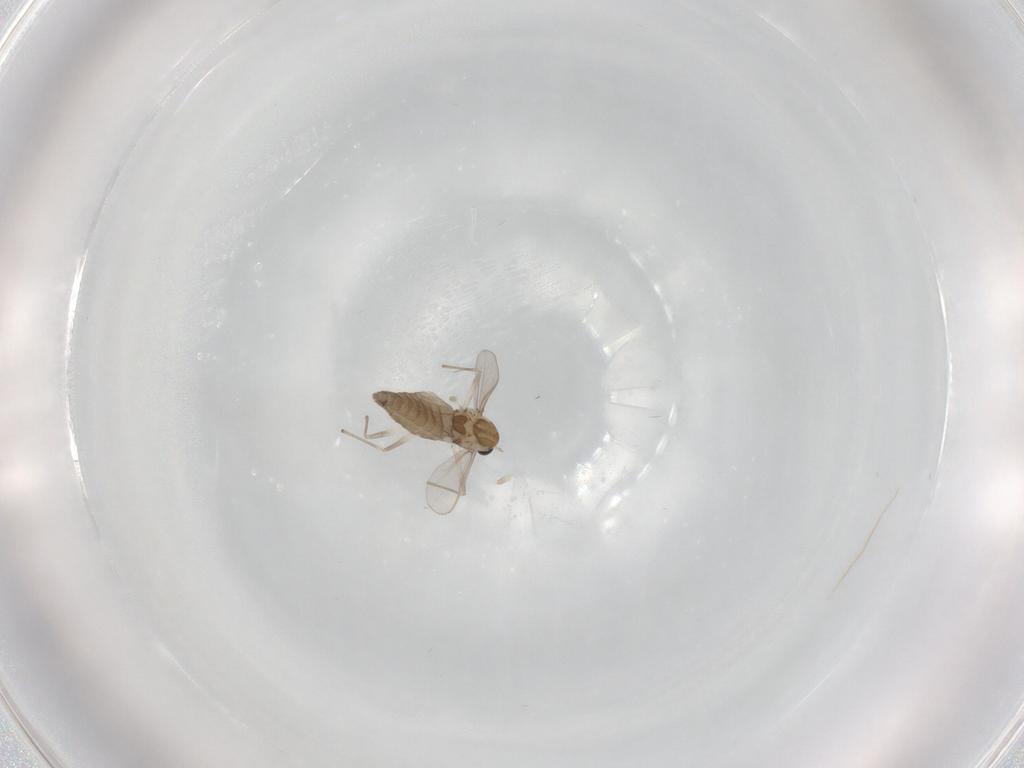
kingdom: Animalia
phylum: Arthropoda
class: Insecta
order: Diptera
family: Chironomidae
